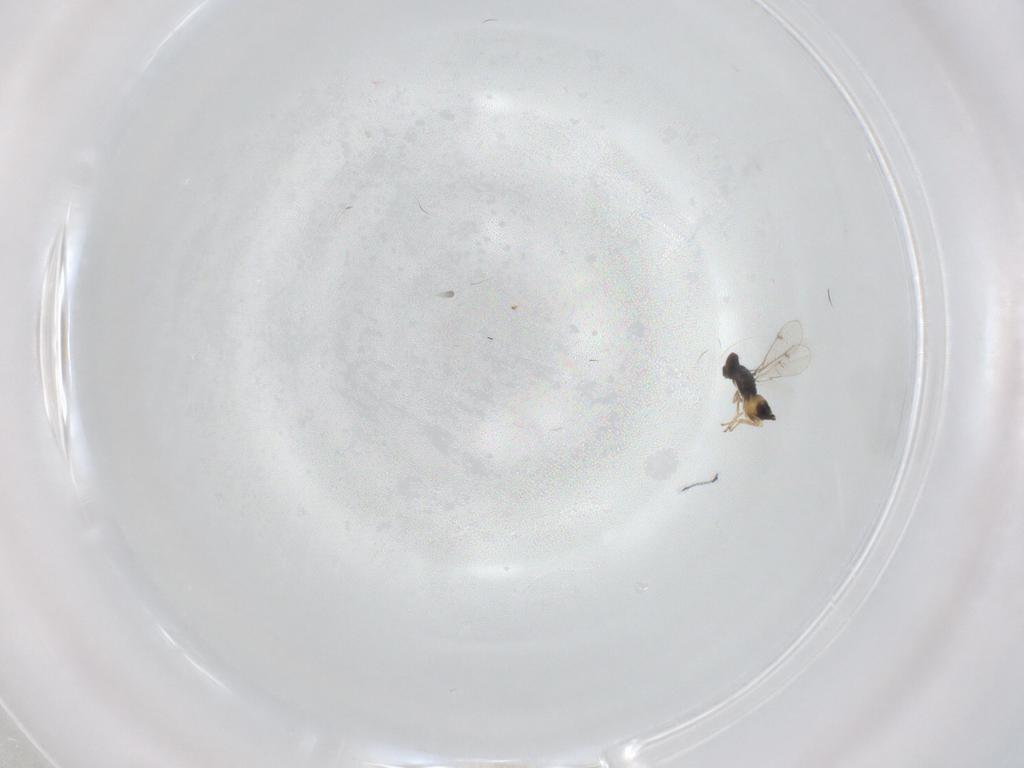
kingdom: Animalia
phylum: Arthropoda
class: Insecta
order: Hymenoptera
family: Eulophidae
